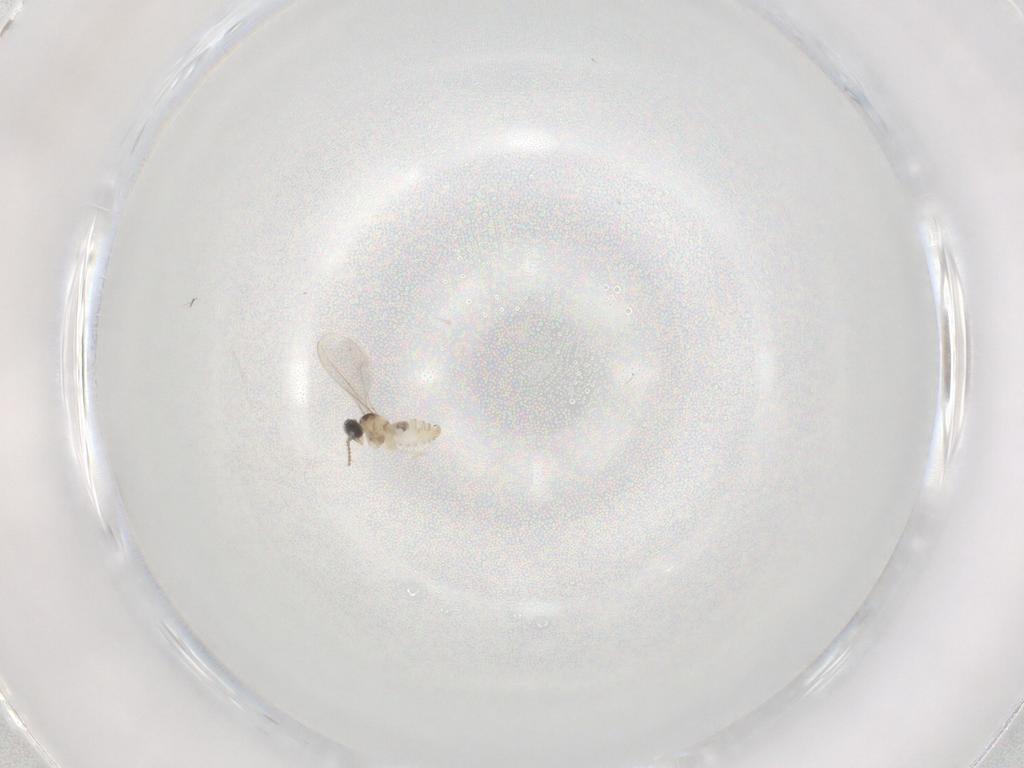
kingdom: Animalia
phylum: Arthropoda
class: Insecta
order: Diptera
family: Cecidomyiidae
